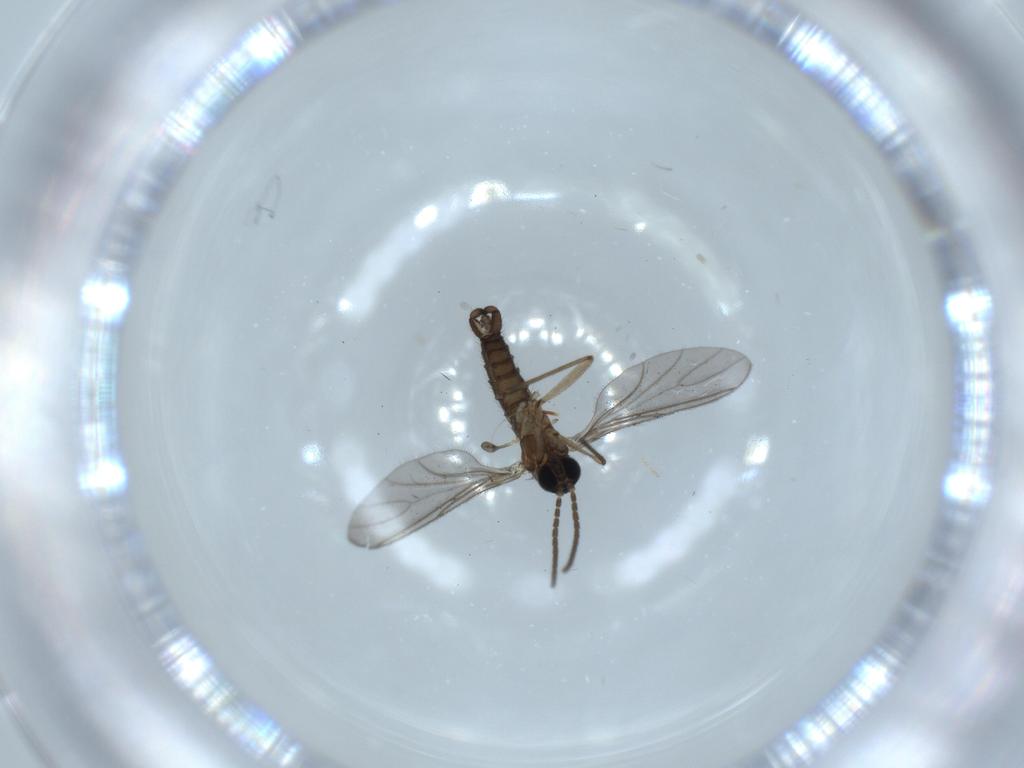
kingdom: Animalia
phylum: Arthropoda
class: Insecta
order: Diptera
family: Sciaridae
